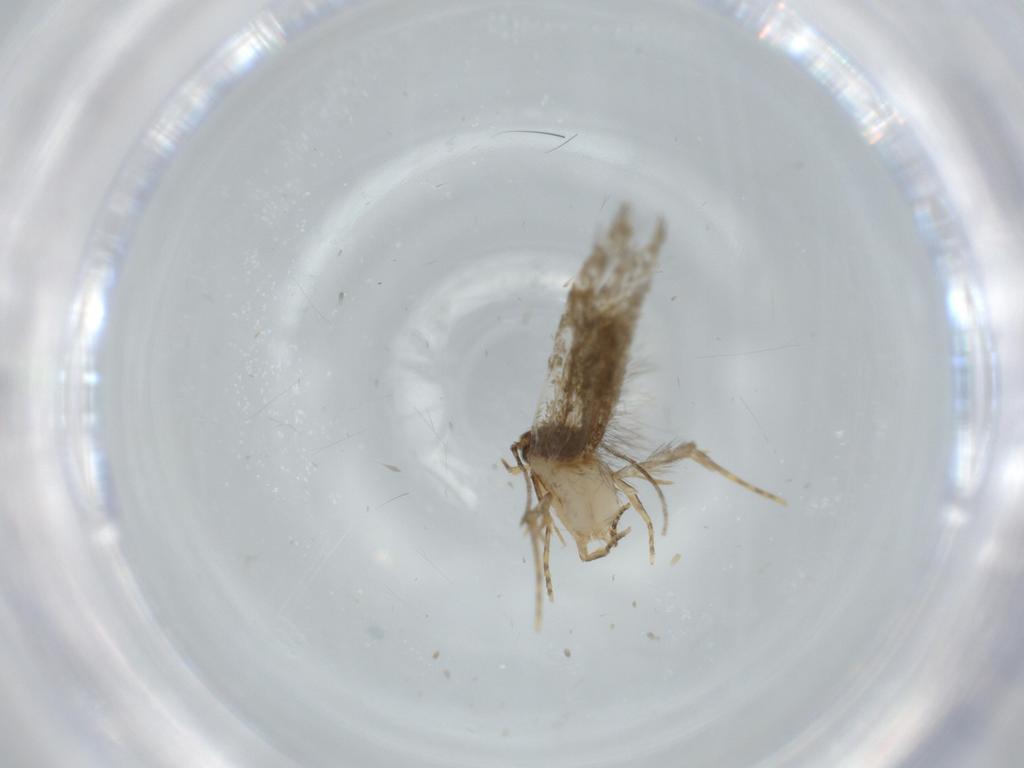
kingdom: Animalia
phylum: Arthropoda
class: Insecta
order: Lepidoptera
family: Tineidae
